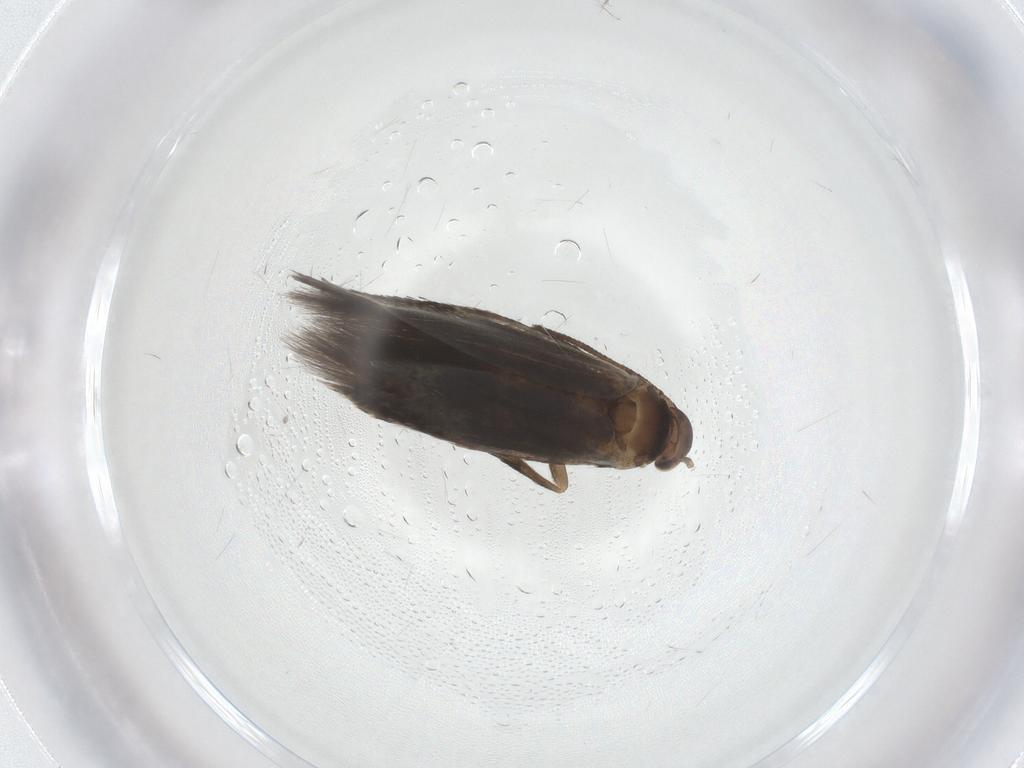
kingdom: Animalia
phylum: Arthropoda
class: Insecta
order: Lepidoptera
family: Elachistidae
